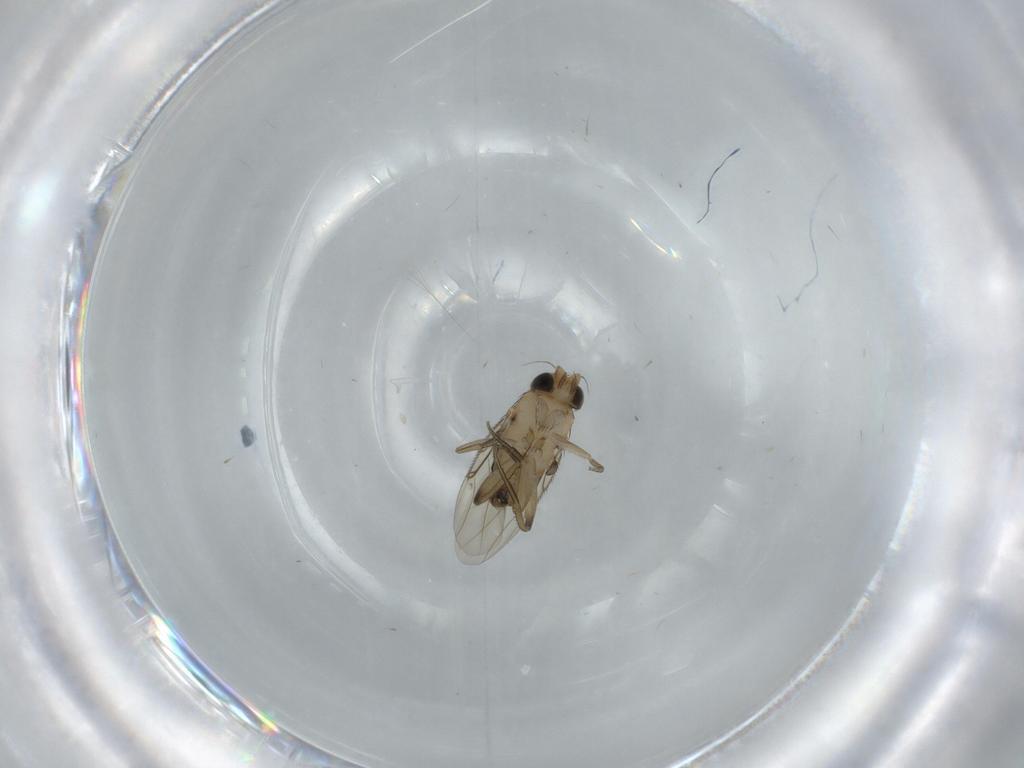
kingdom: Animalia
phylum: Arthropoda
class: Insecta
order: Diptera
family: Phoridae
